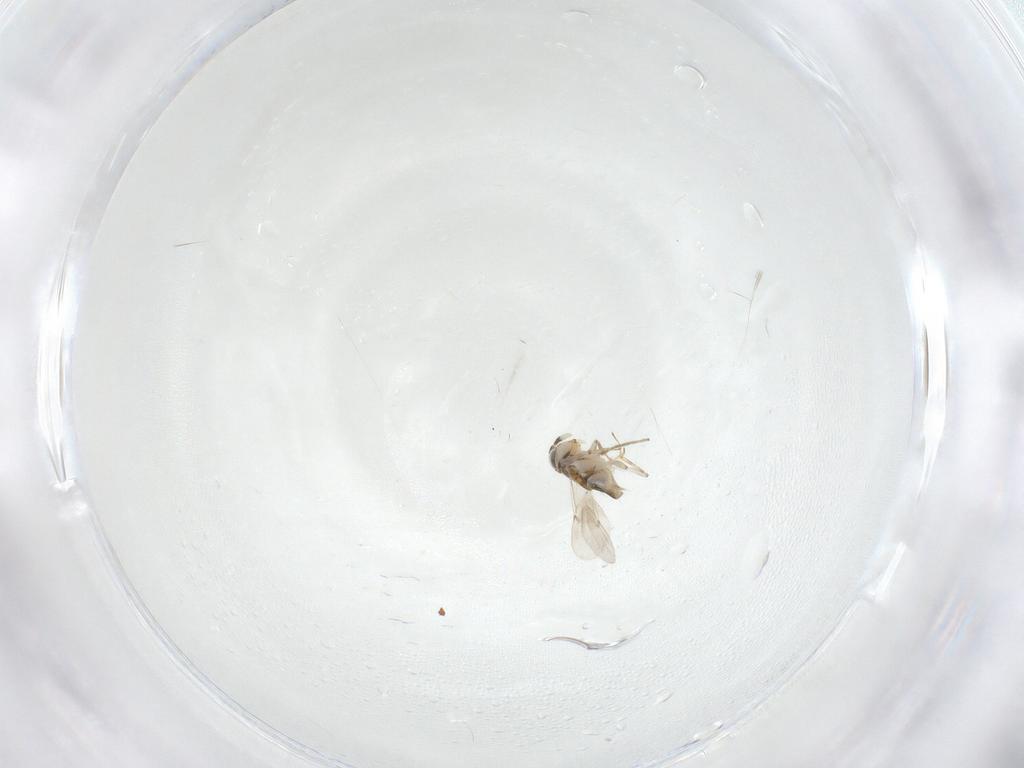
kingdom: Animalia
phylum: Arthropoda
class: Insecta
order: Hymenoptera
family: Encyrtidae
